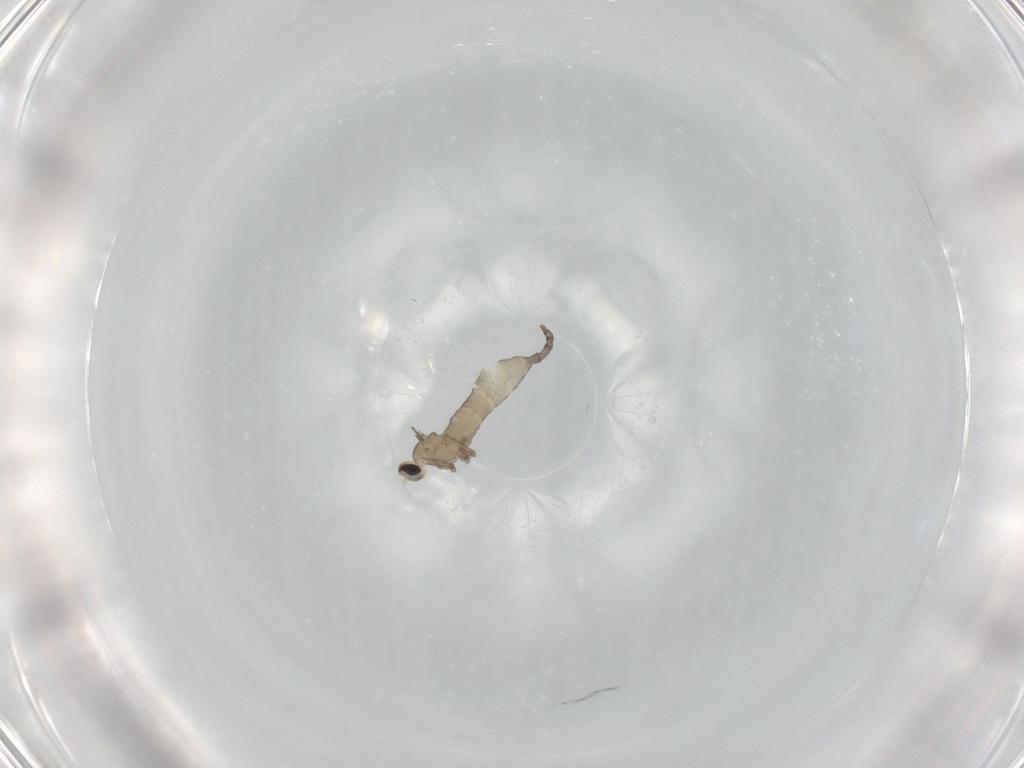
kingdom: Animalia
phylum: Arthropoda
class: Insecta
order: Diptera
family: Cecidomyiidae
